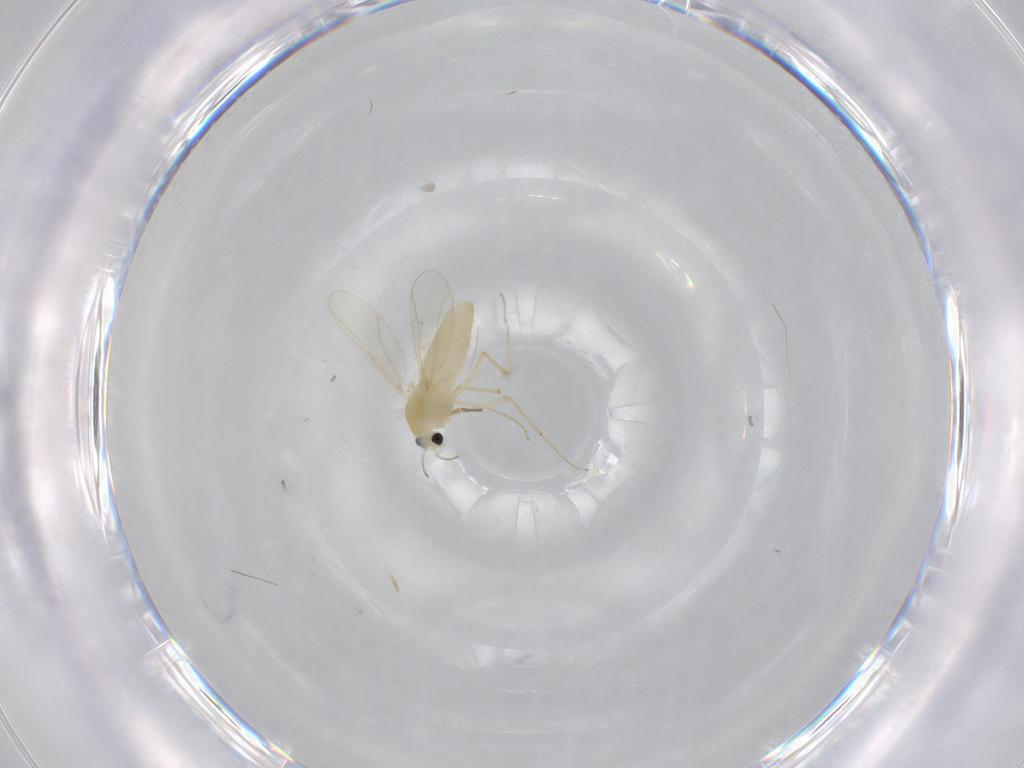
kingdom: Animalia
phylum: Arthropoda
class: Insecta
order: Diptera
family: Chironomidae
